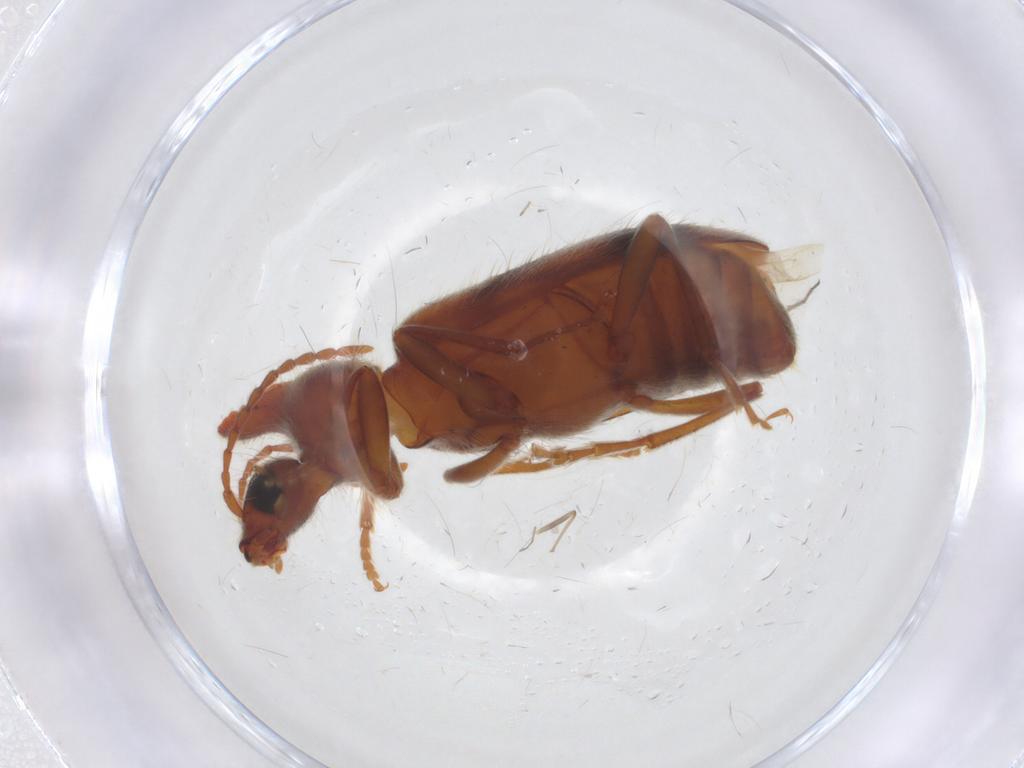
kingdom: Animalia
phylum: Arthropoda
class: Insecta
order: Coleoptera
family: Anthicidae
